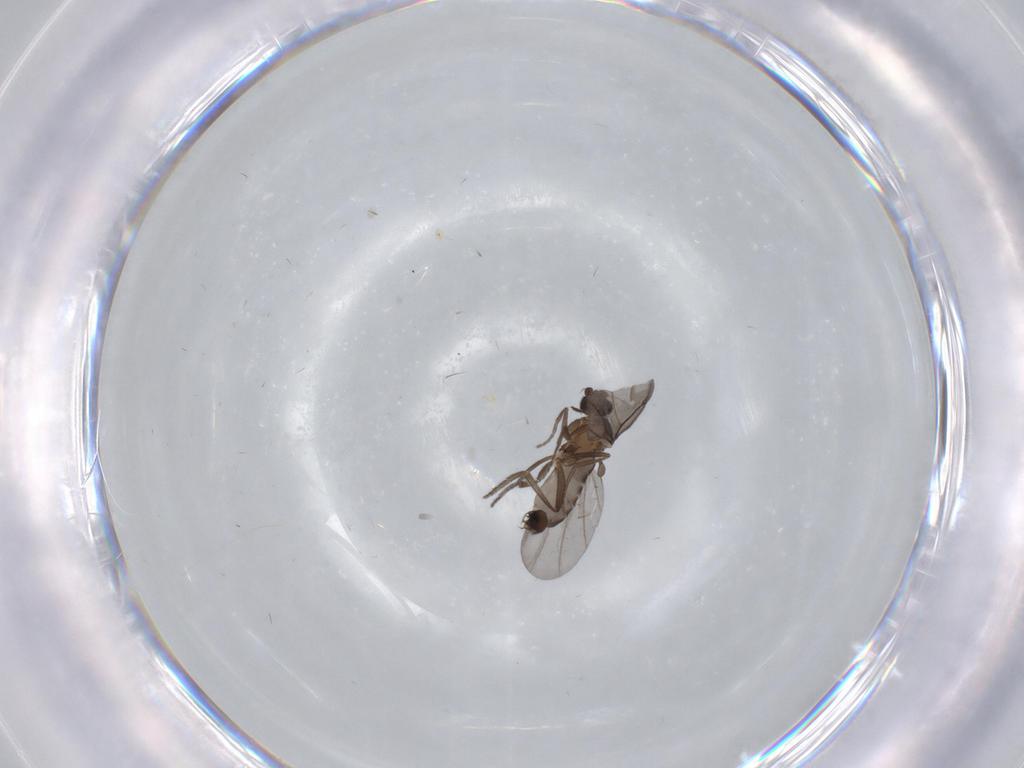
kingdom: Animalia
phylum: Arthropoda
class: Insecta
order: Diptera
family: Phoridae
